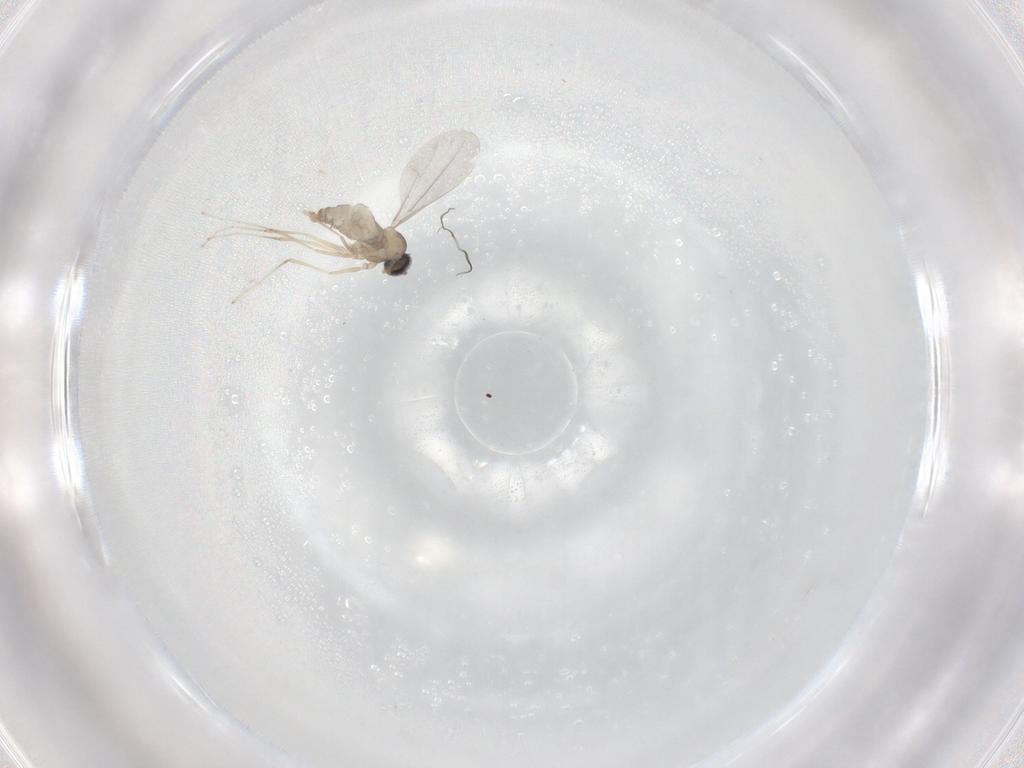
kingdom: Animalia
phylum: Arthropoda
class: Insecta
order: Diptera
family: Cecidomyiidae
